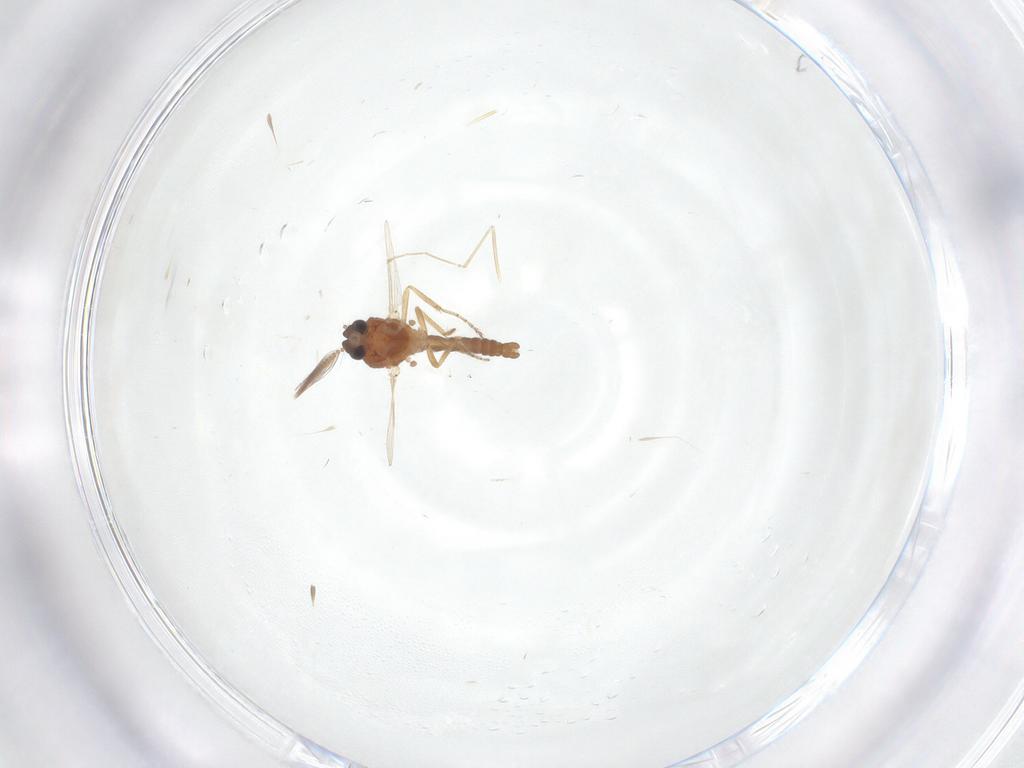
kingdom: Animalia
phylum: Arthropoda
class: Insecta
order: Diptera
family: Ceratopogonidae
